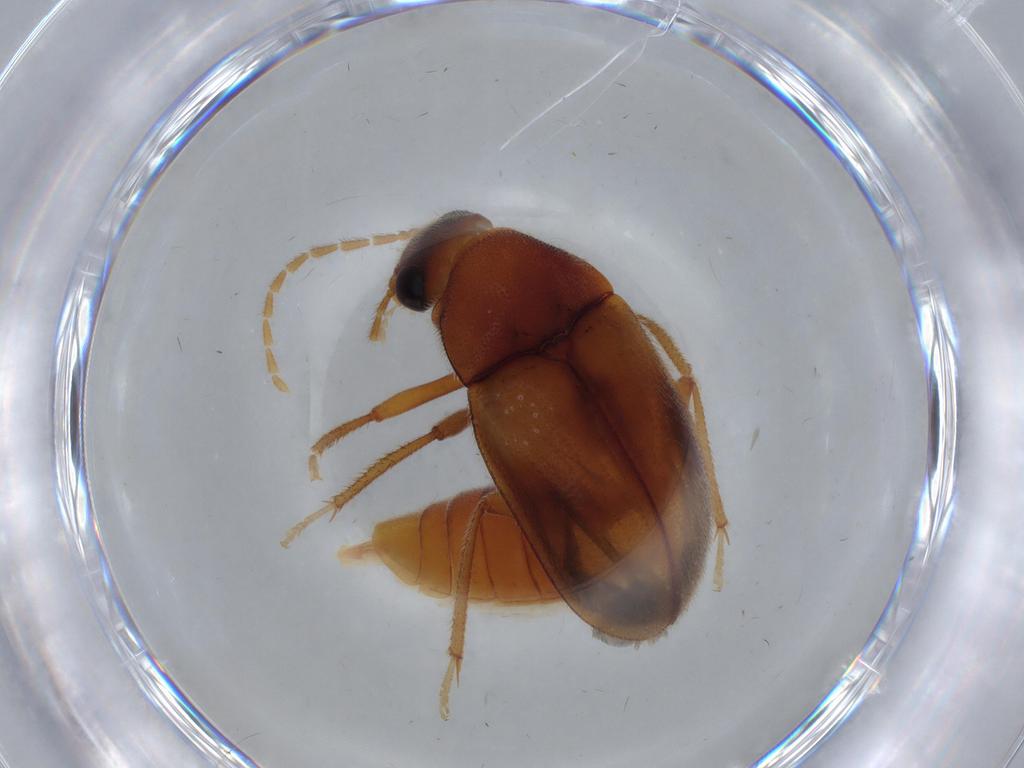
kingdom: Animalia
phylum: Arthropoda
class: Insecta
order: Coleoptera
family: Ptilodactylidae
